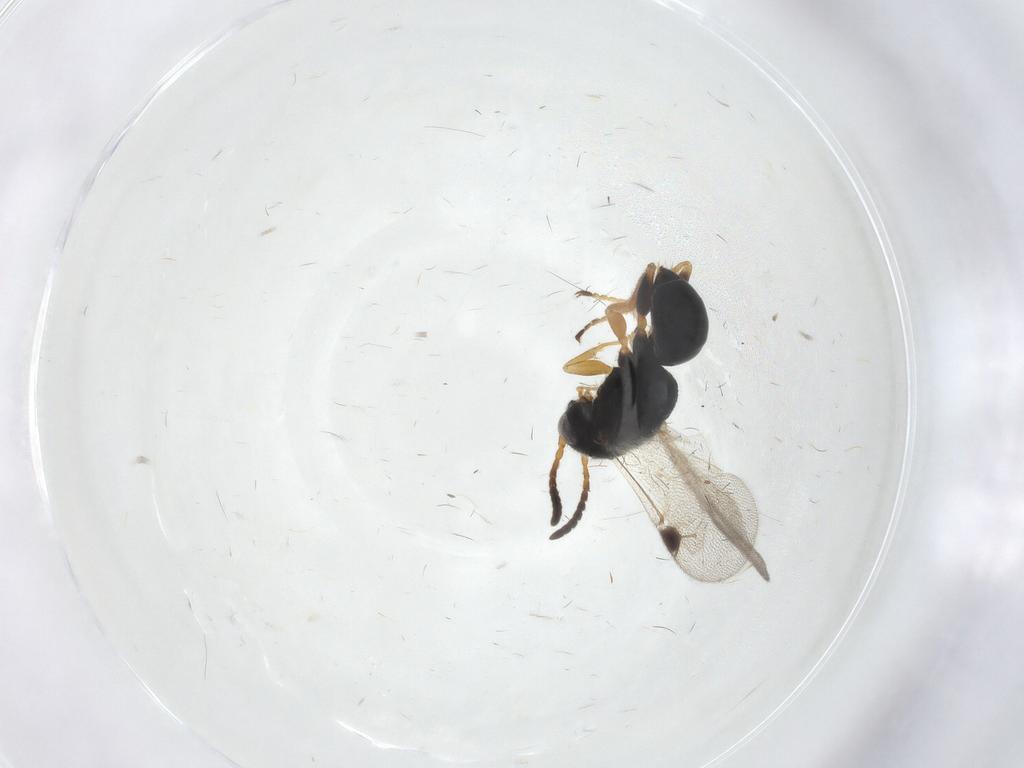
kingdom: Animalia
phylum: Arthropoda
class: Insecta
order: Hymenoptera
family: Dryinidae
